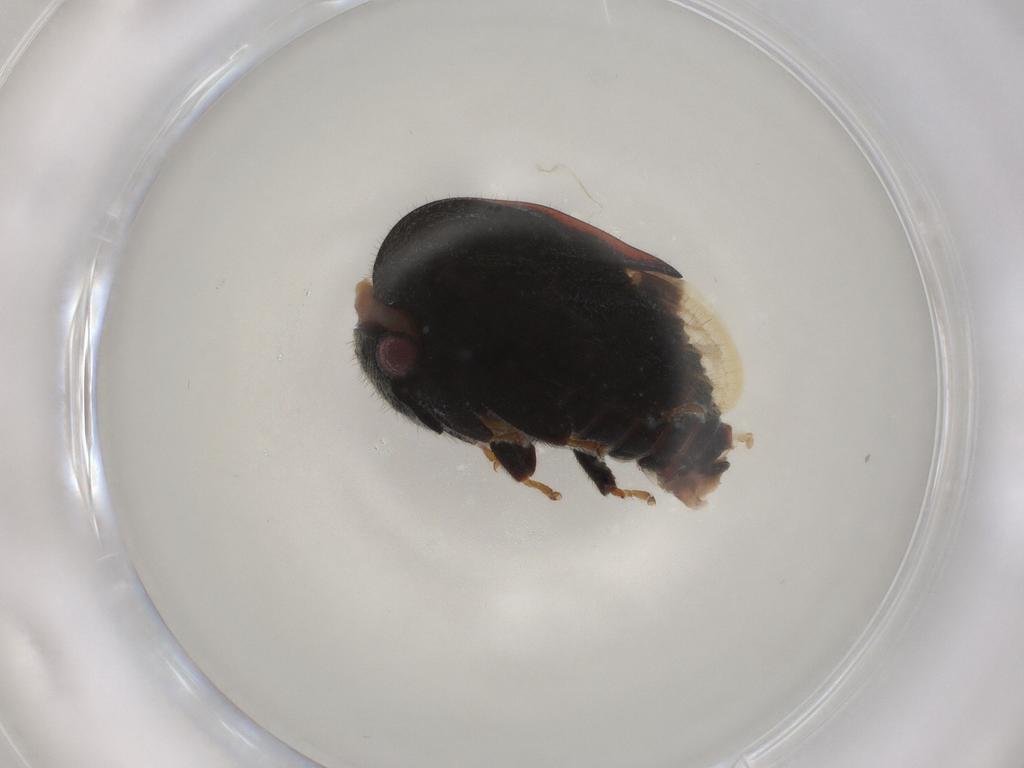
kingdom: Animalia
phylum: Arthropoda
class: Insecta
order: Hemiptera
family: Membracidae
